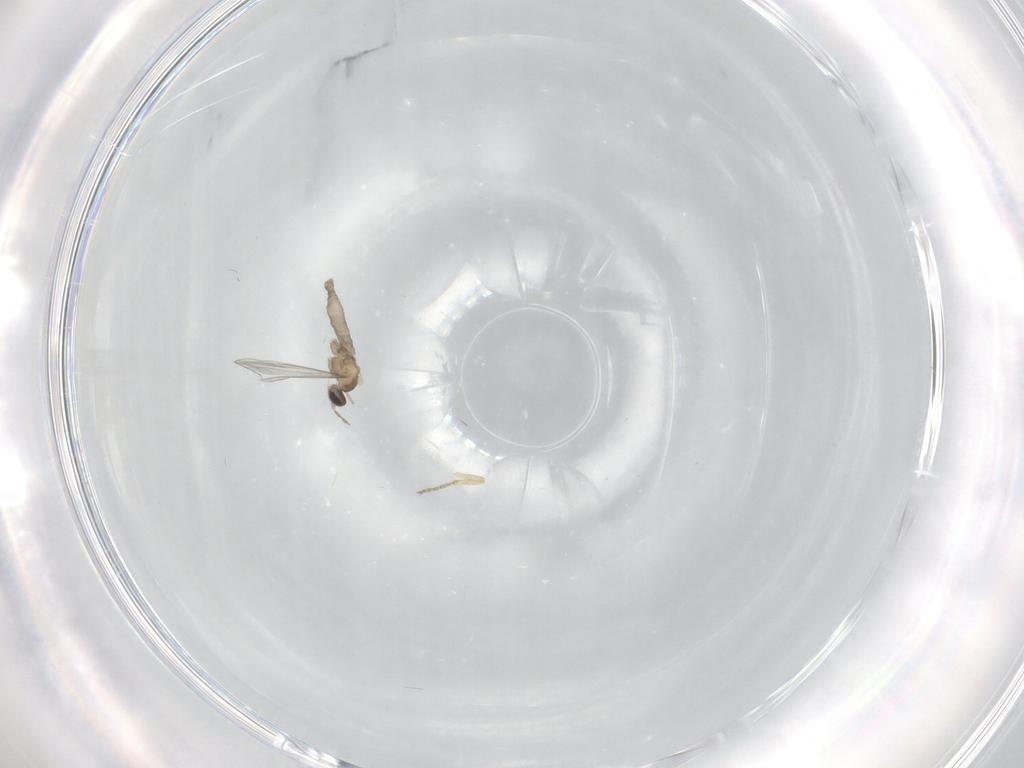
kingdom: Animalia
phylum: Arthropoda
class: Insecta
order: Diptera
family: Cecidomyiidae
